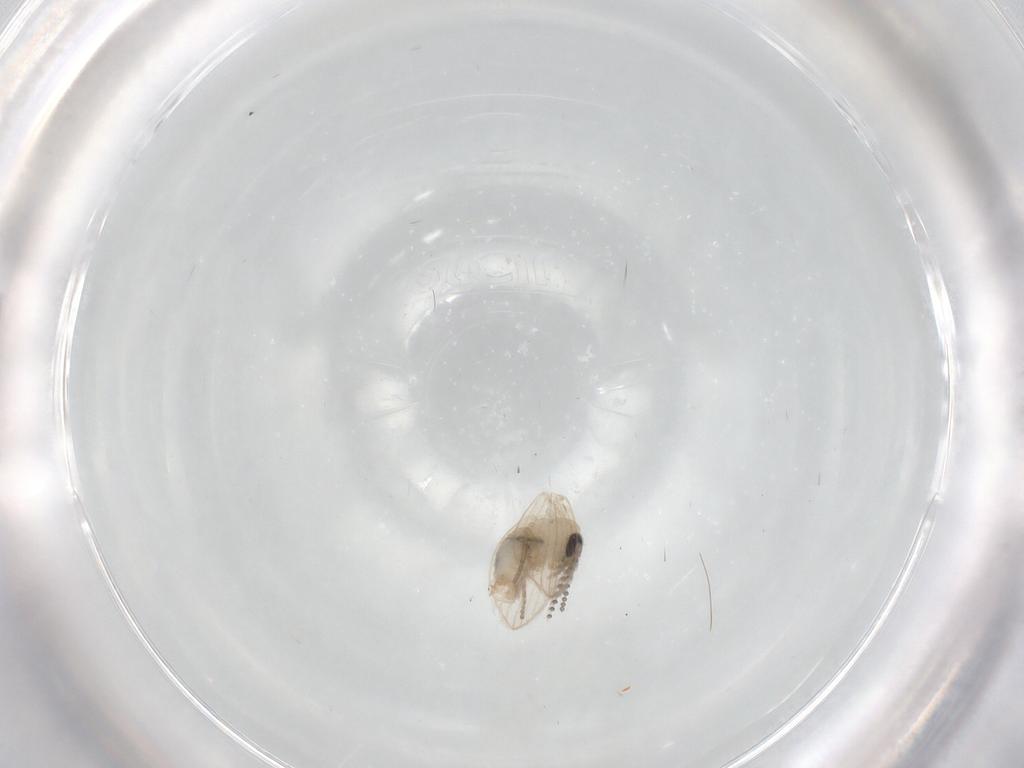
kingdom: Animalia
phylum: Arthropoda
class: Insecta
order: Diptera
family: Psychodidae
